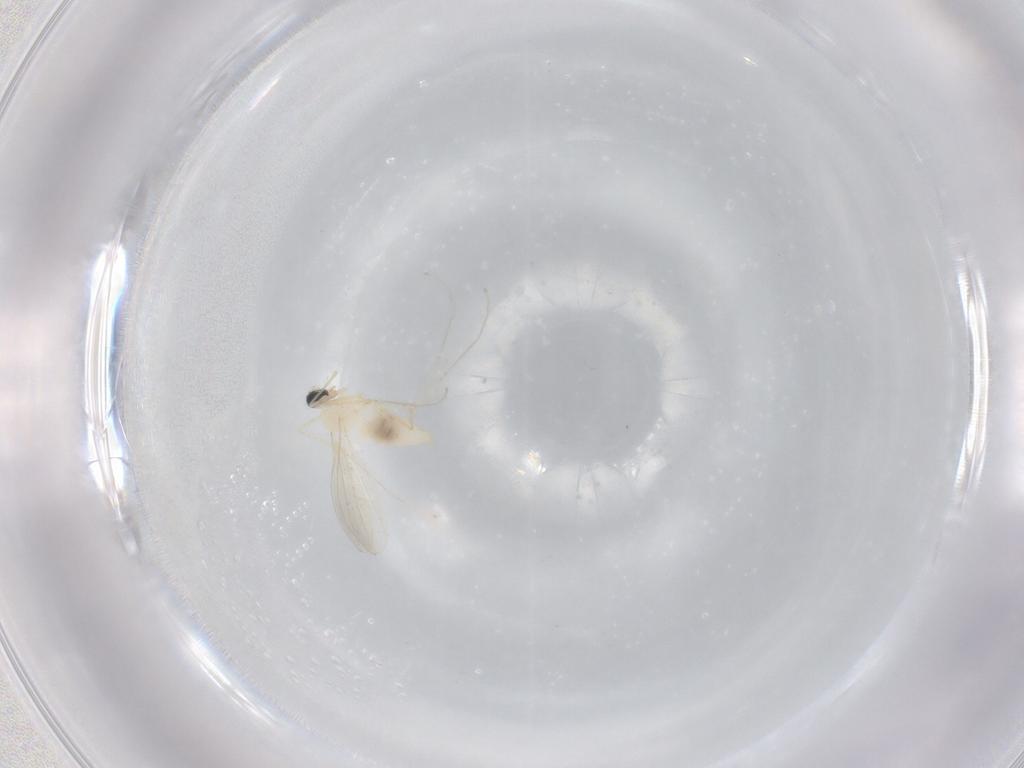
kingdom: Animalia
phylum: Arthropoda
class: Insecta
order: Diptera
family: Cecidomyiidae
